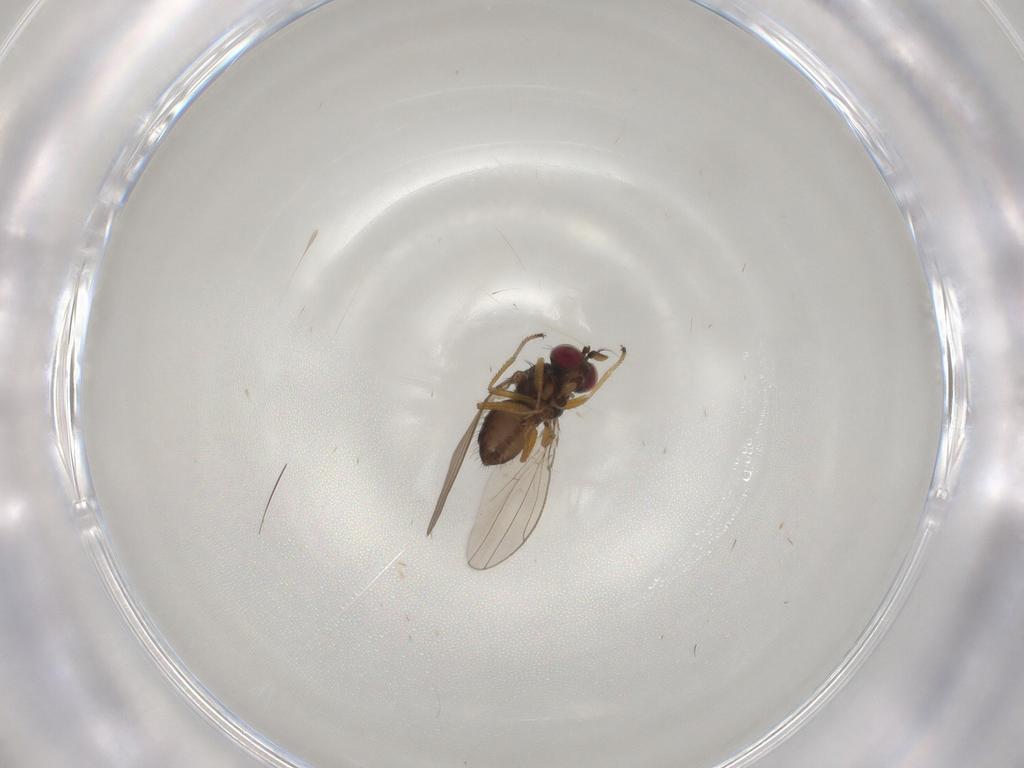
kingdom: Animalia
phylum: Arthropoda
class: Insecta
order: Diptera
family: Ephydridae
